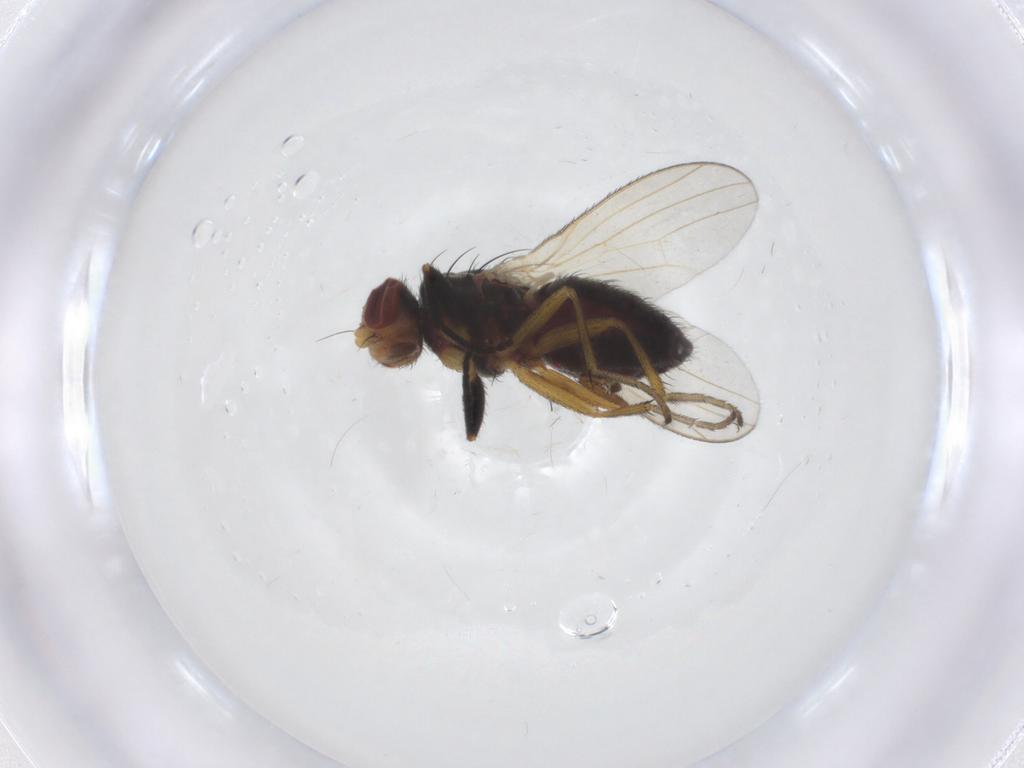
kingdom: Animalia
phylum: Arthropoda
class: Insecta
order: Diptera
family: Heleomyzidae
